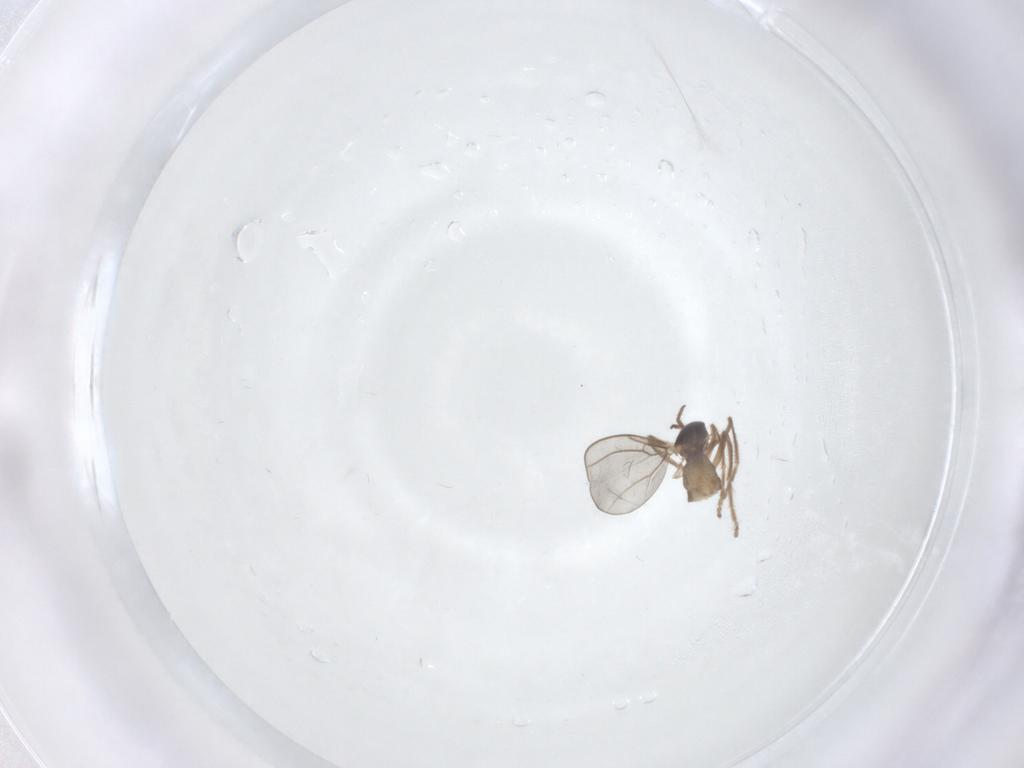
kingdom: Animalia
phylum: Arthropoda
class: Insecta
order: Diptera
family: Cecidomyiidae
